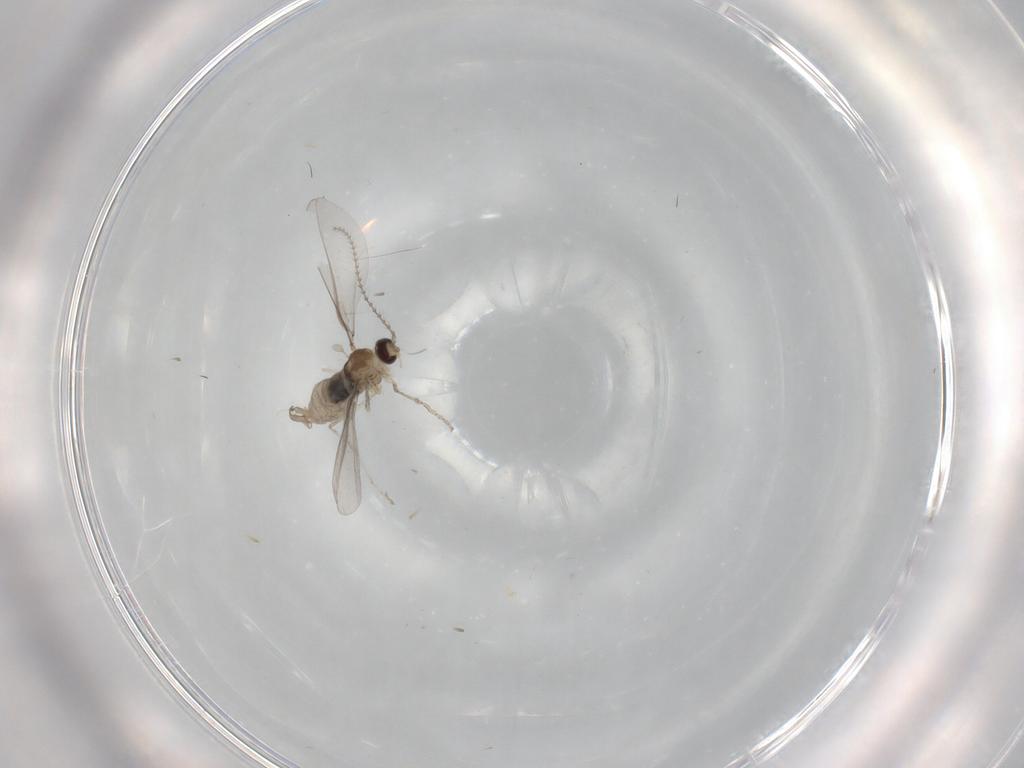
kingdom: Animalia
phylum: Arthropoda
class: Insecta
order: Diptera
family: Cecidomyiidae
